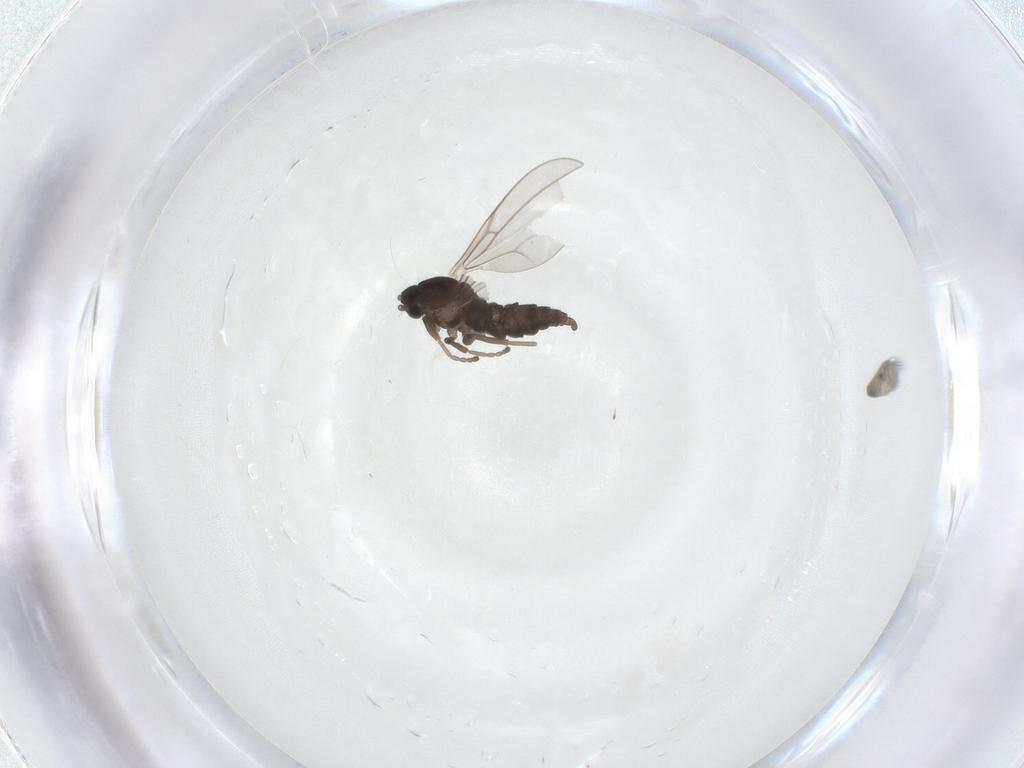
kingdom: Animalia
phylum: Arthropoda
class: Insecta
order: Diptera
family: Cecidomyiidae
